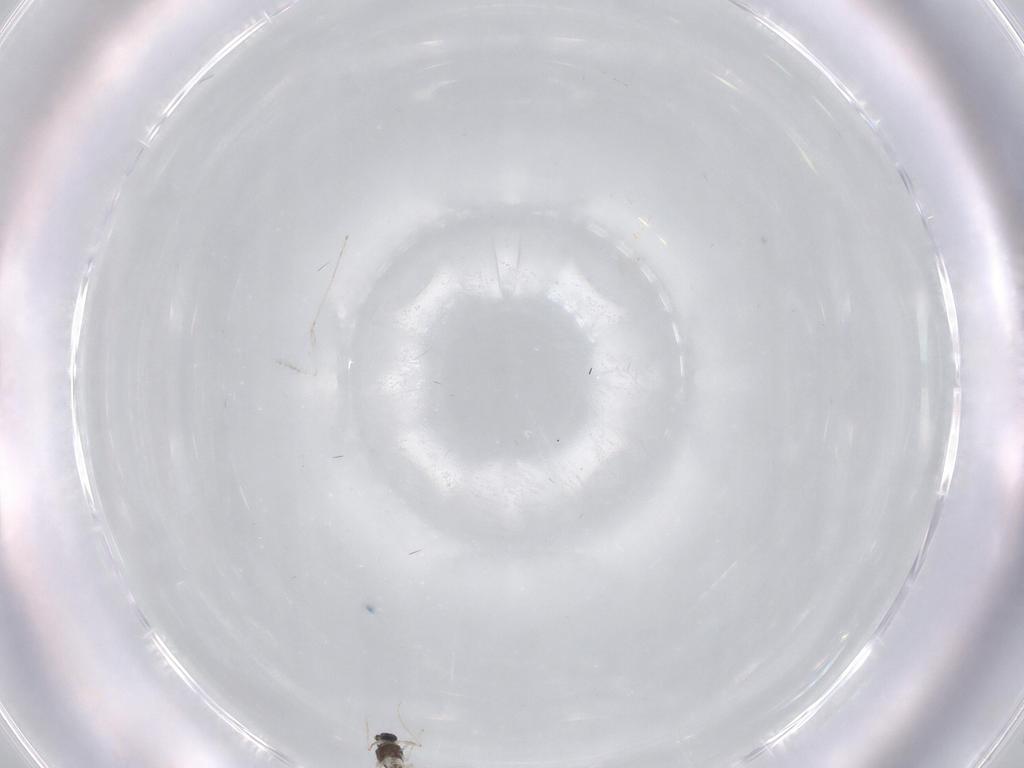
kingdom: Animalia
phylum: Arthropoda
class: Insecta
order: Diptera
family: Chironomidae
